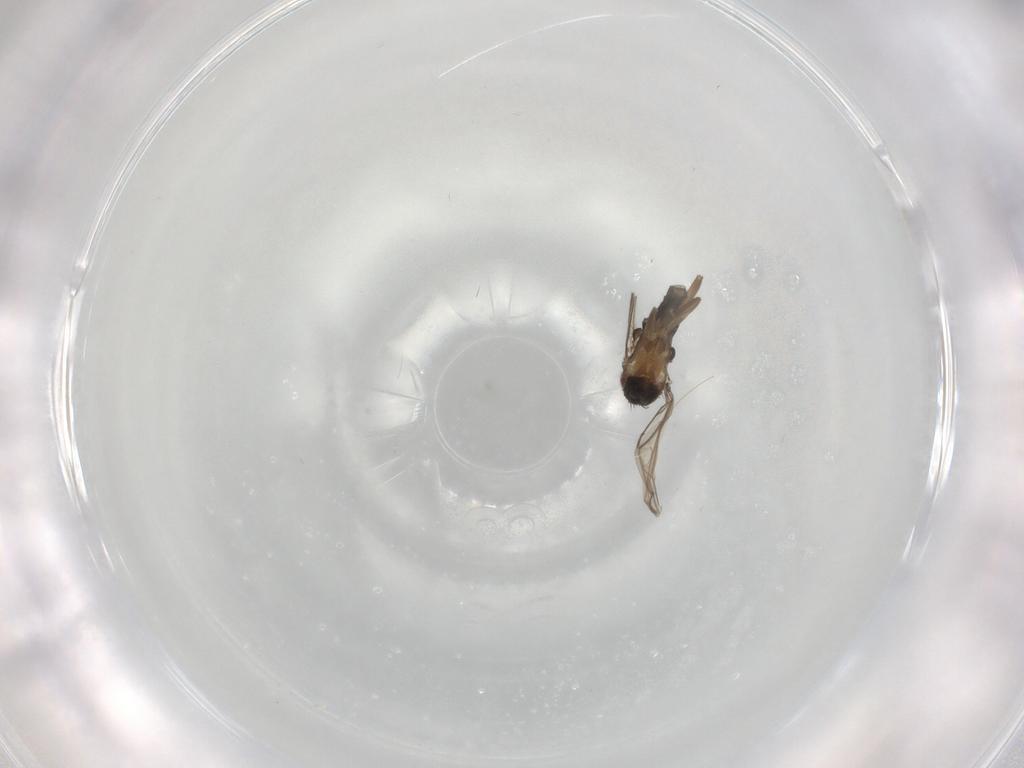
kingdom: Animalia
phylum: Arthropoda
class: Insecta
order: Diptera
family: Phoridae
